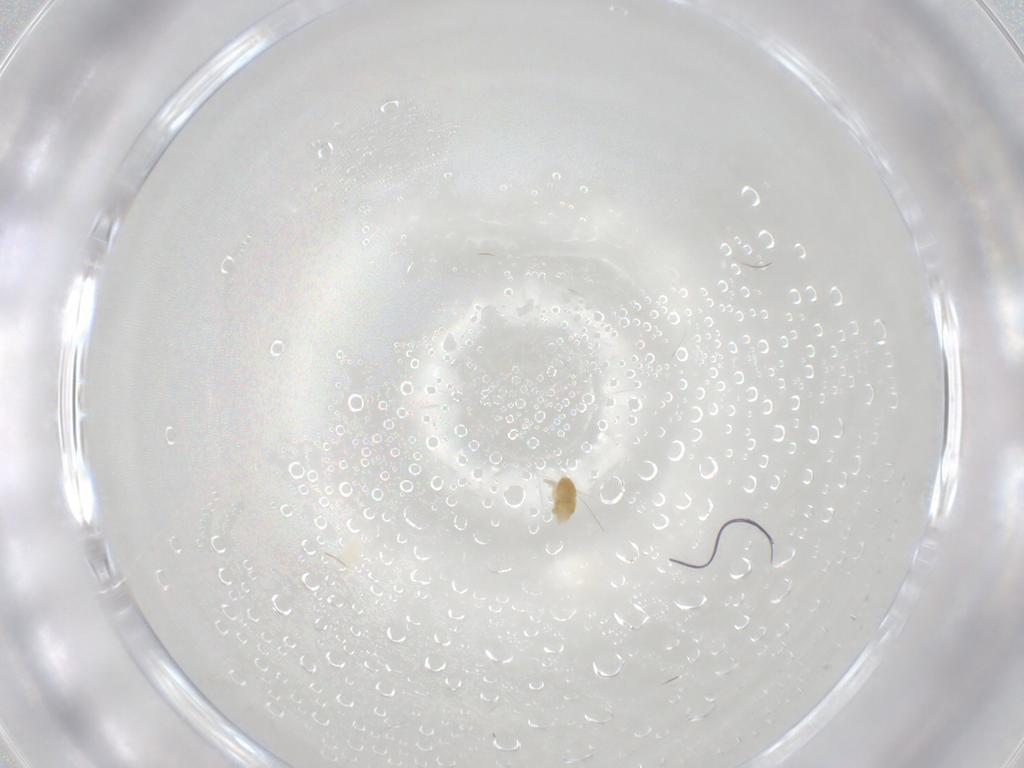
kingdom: Animalia
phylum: Arthropoda
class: Arachnida
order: Trombidiformes
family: Eupodidae
